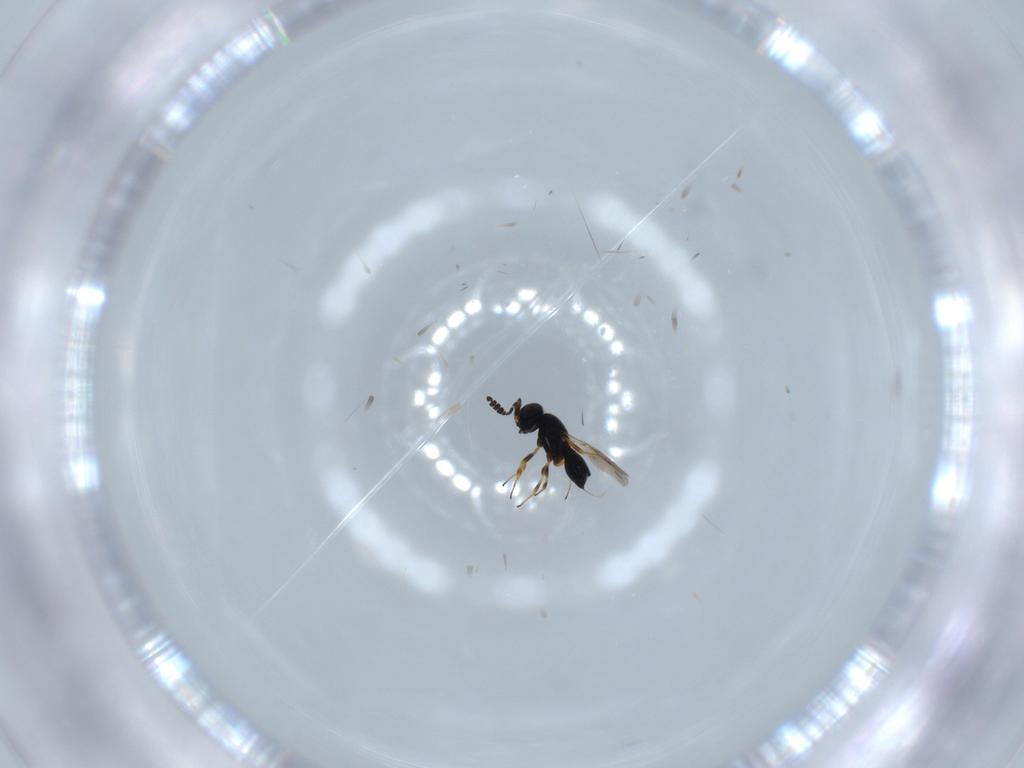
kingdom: Animalia
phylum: Arthropoda
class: Insecta
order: Hymenoptera
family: Scelionidae
